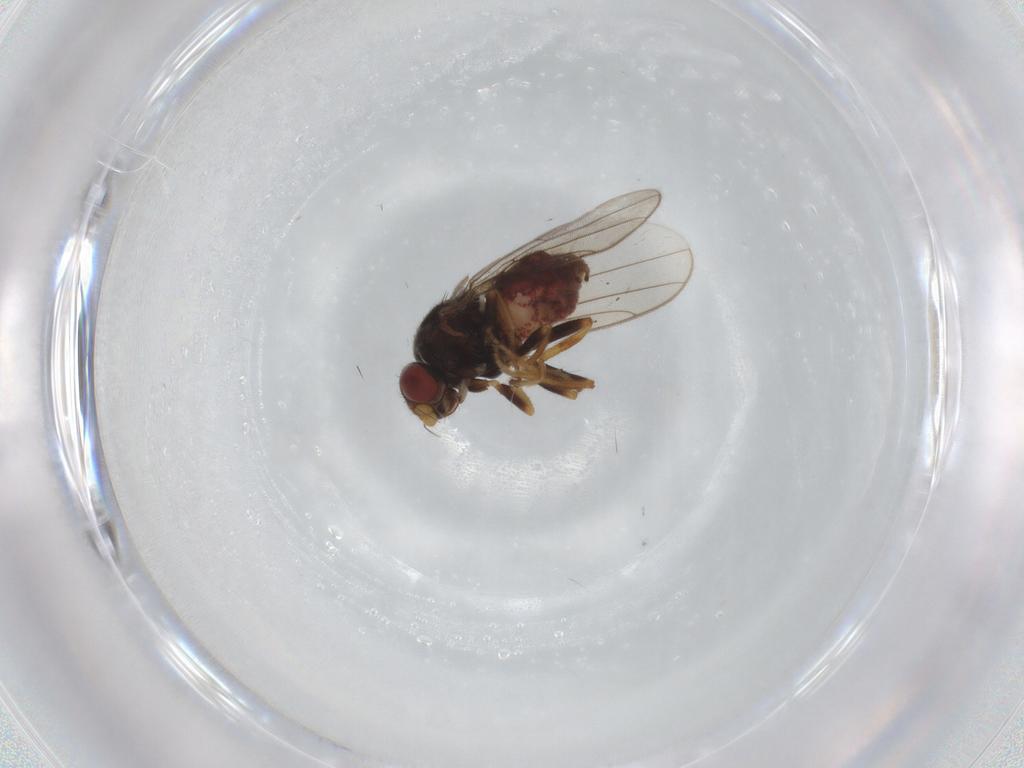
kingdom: Animalia
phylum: Arthropoda
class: Insecta
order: Diptera
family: Chloropidae
